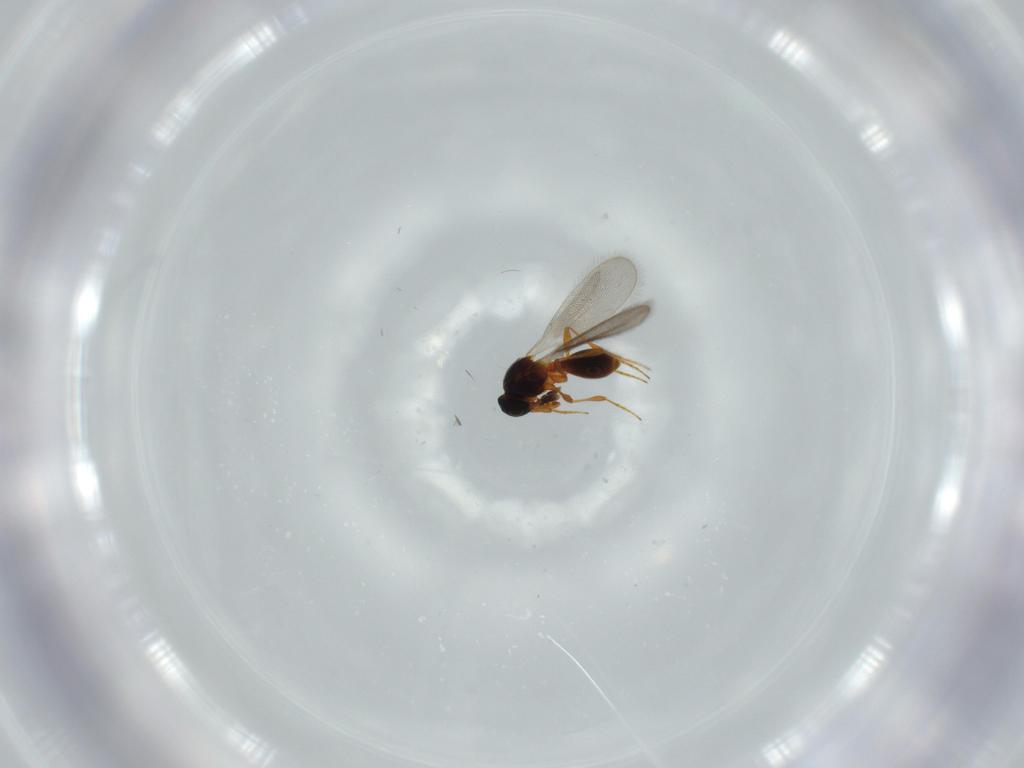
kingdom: Animalia
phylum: Arthropoda
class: Insecta
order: Hymenoptera
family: Platygastridae
